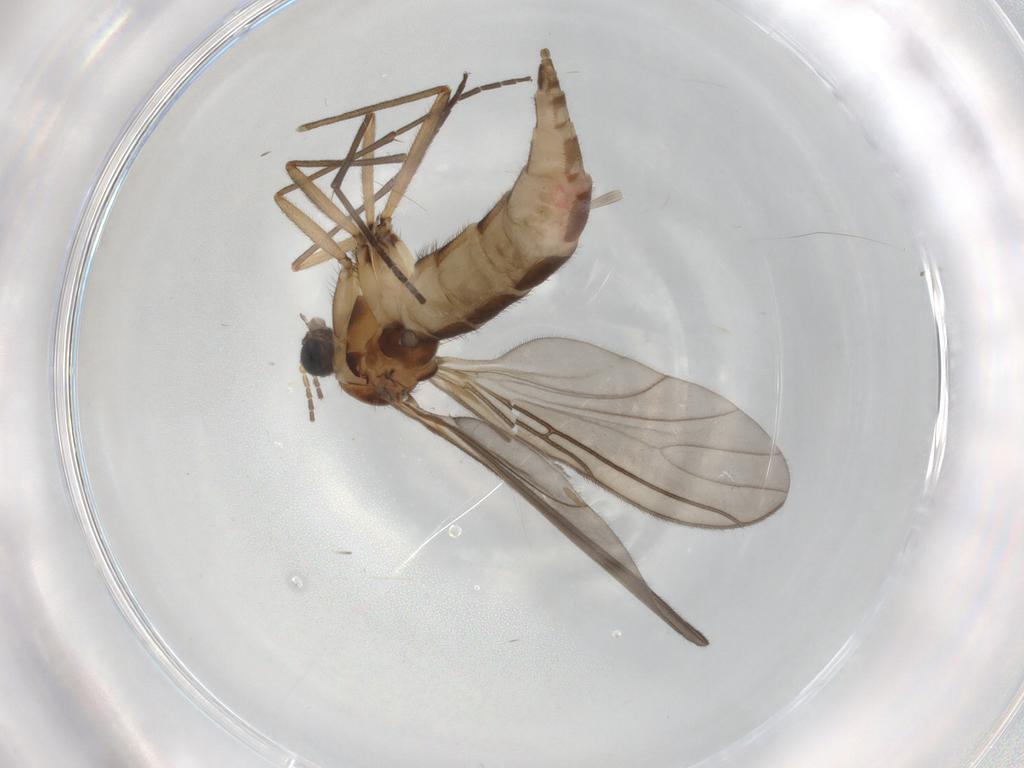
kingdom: Animalia
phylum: Arthropoda
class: Insecta
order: Diptera
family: Sciaridae
